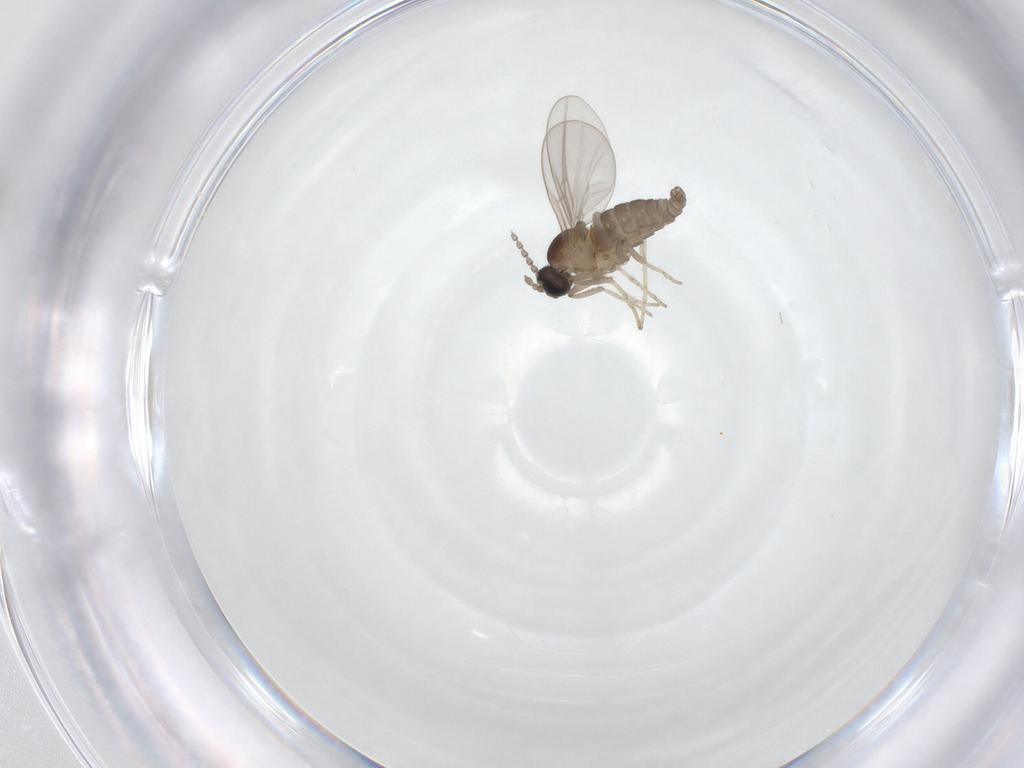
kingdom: Animalia
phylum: Arthropoda
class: Insecta
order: Diptera
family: Cecidomyiidae
